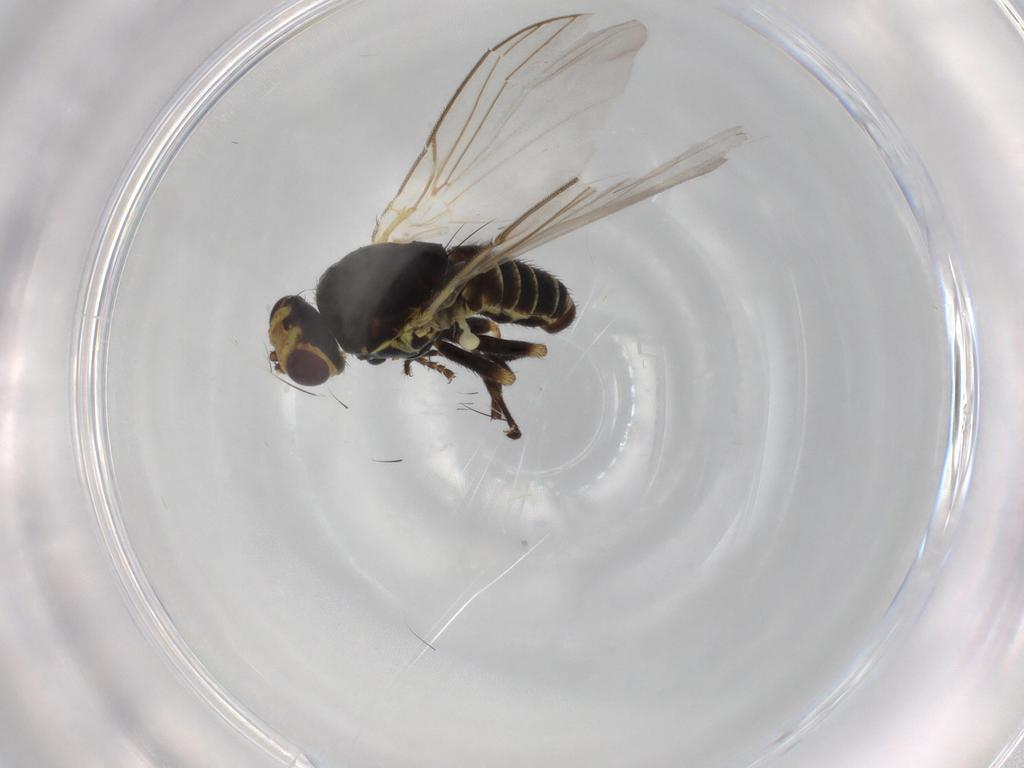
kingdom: Animalia
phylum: Arthropoda
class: Insecta
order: Diptera
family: Agromyzidae
